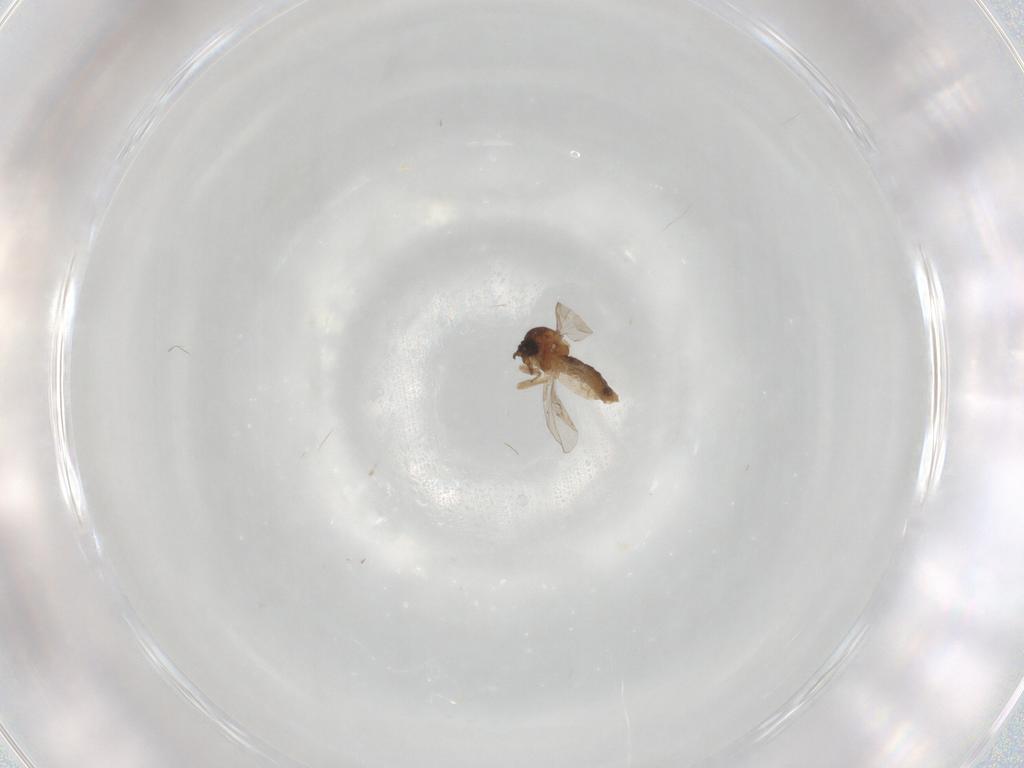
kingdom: Animalia
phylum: Arthropoda
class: Insecta
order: Diptera
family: Ceratopogonidae
